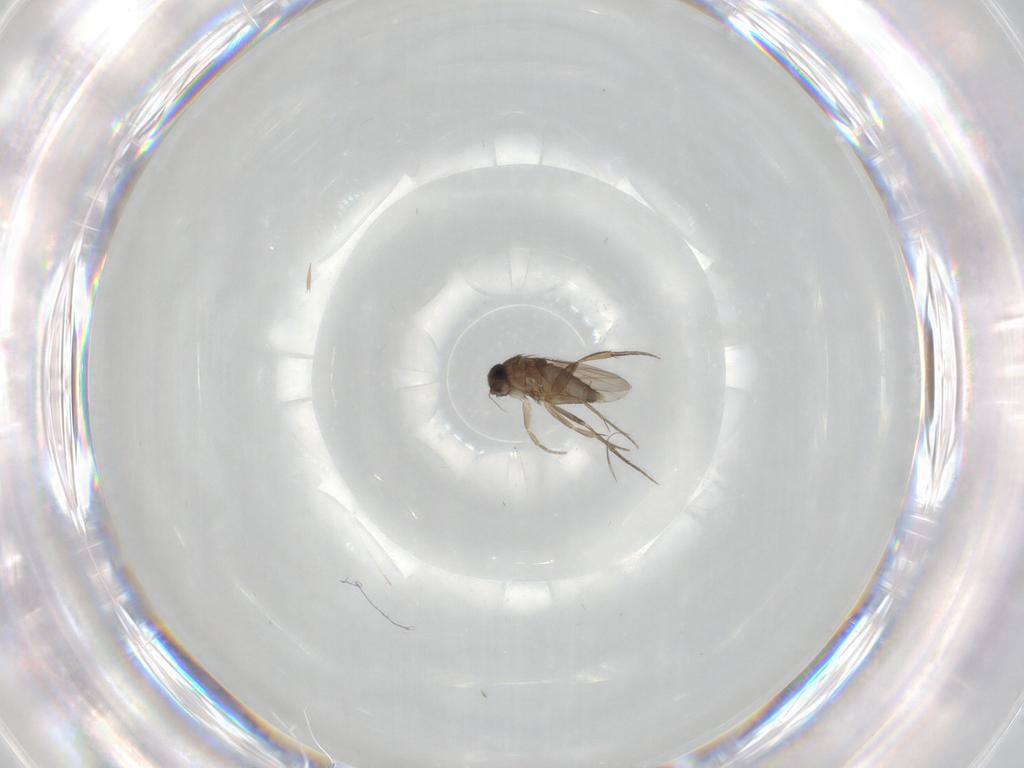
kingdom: Animalia
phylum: Arthropoda
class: Insecta
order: Diptera
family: Phoridae
